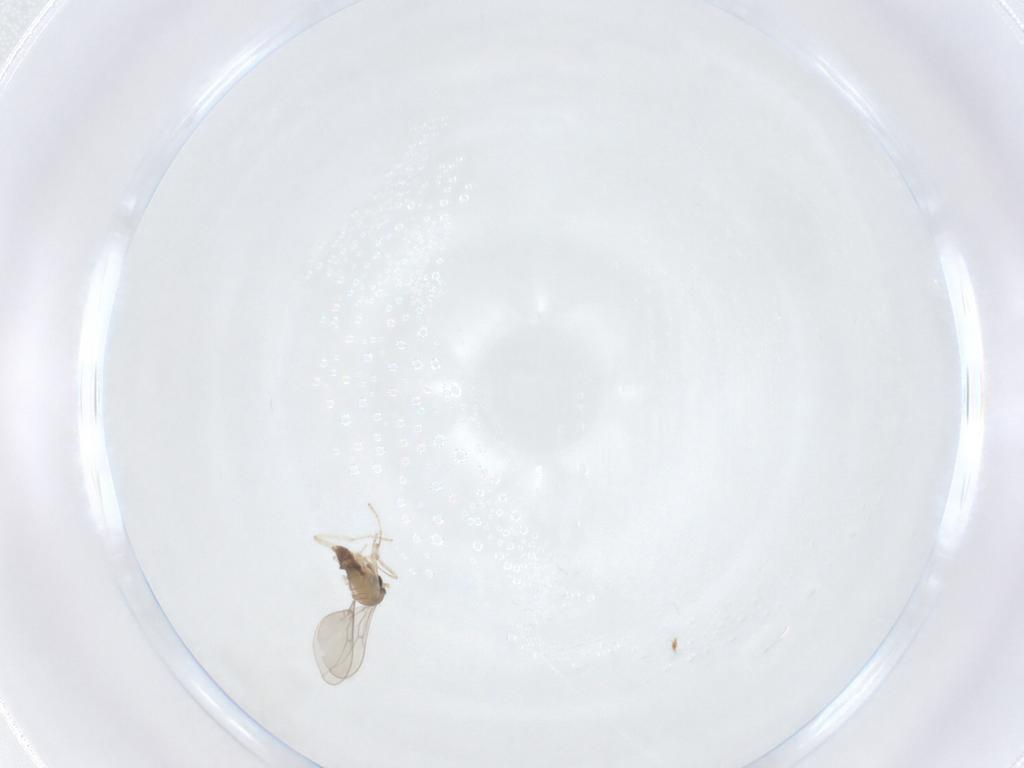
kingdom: Animalia
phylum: Arthropoda
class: Insecta
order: Diptera
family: Cecidomyiidae
